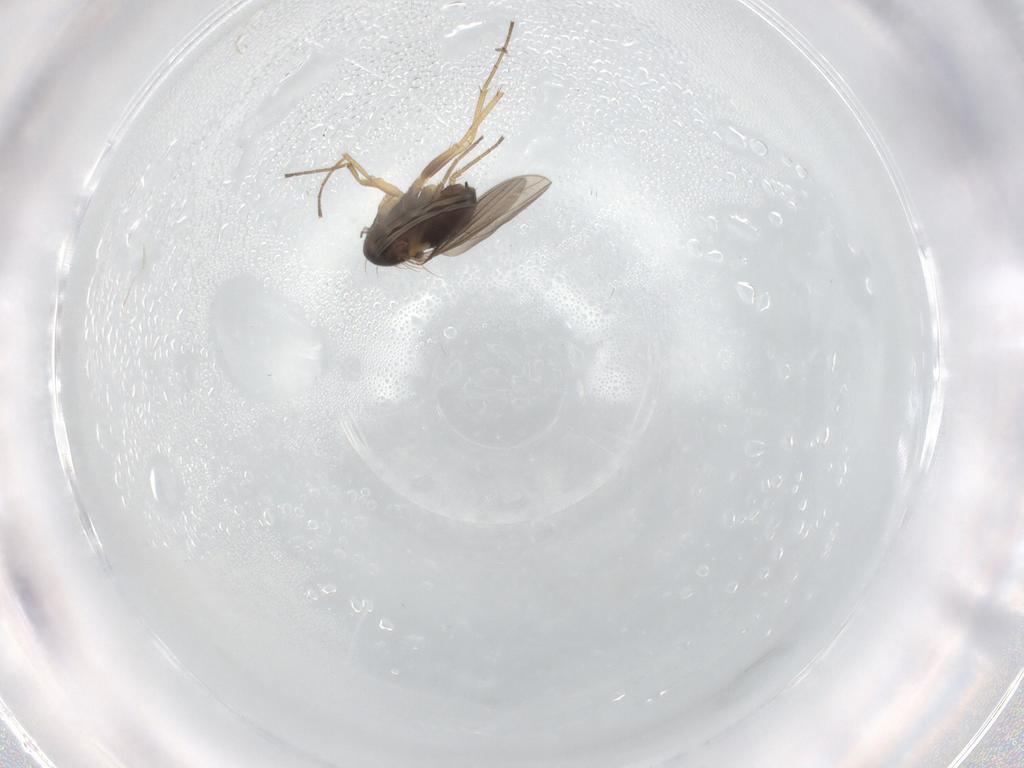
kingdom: Animalia
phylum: Arthropoda
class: Insecta
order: Diptera
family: Dolichopodidae
